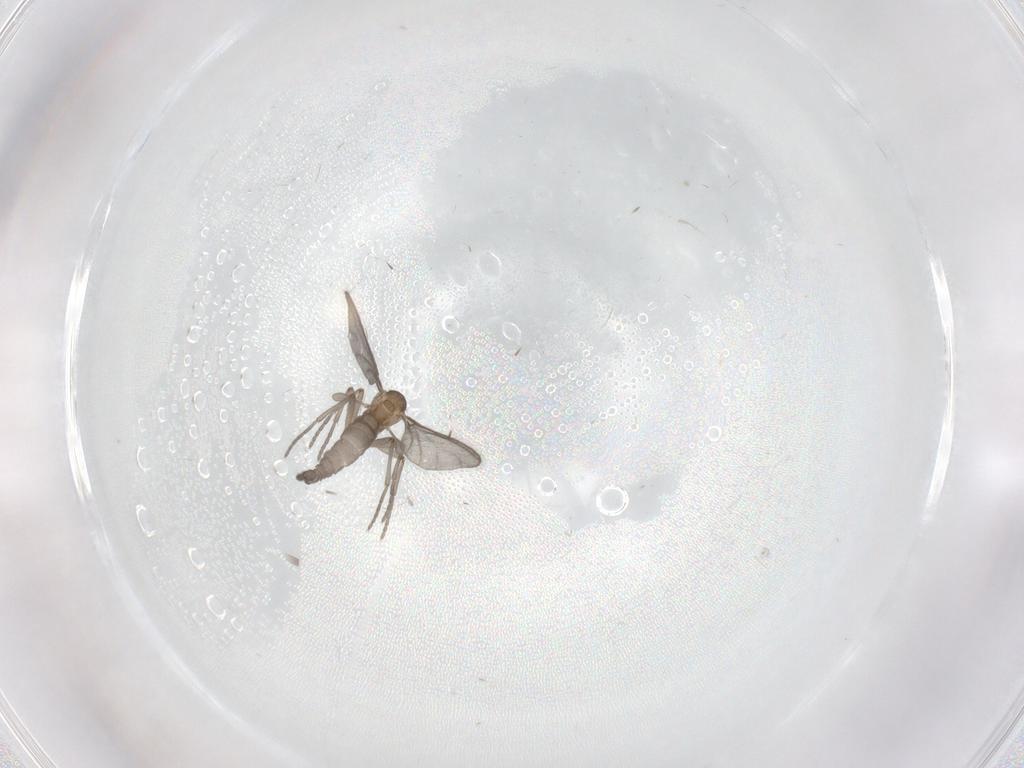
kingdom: Animalia
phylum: Arthropoda
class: Insecta
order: Diptera
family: Sciaridae
